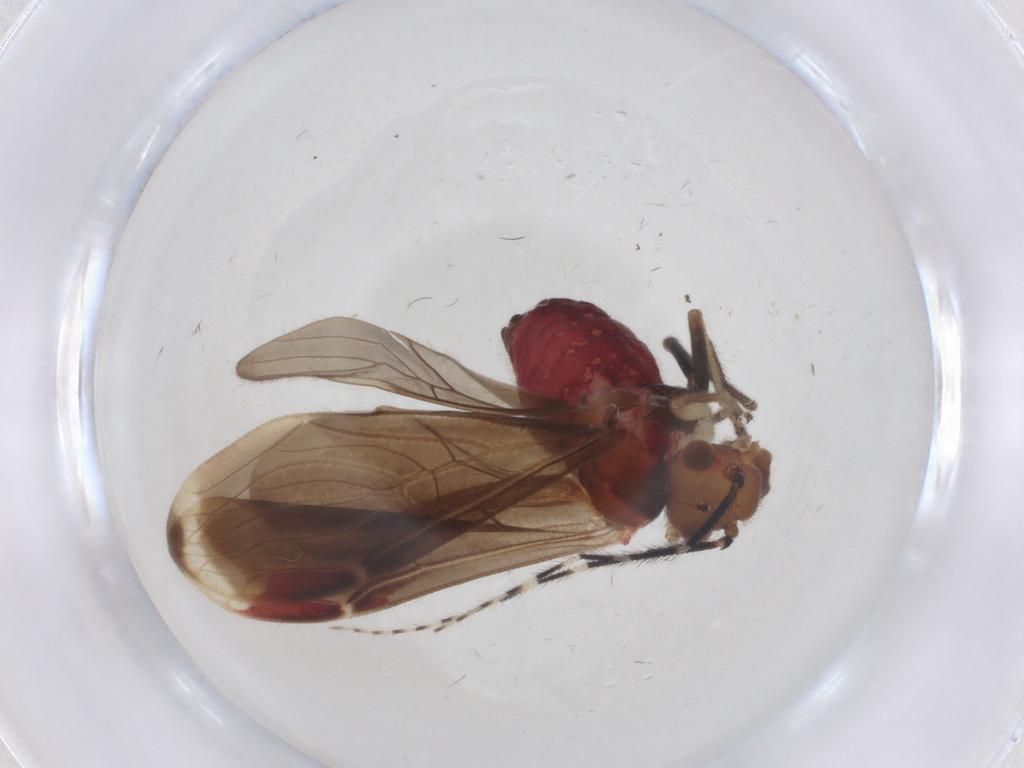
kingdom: Animalia
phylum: Arthropoda
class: Insecta
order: Psocodea
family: Amphipsocidae
